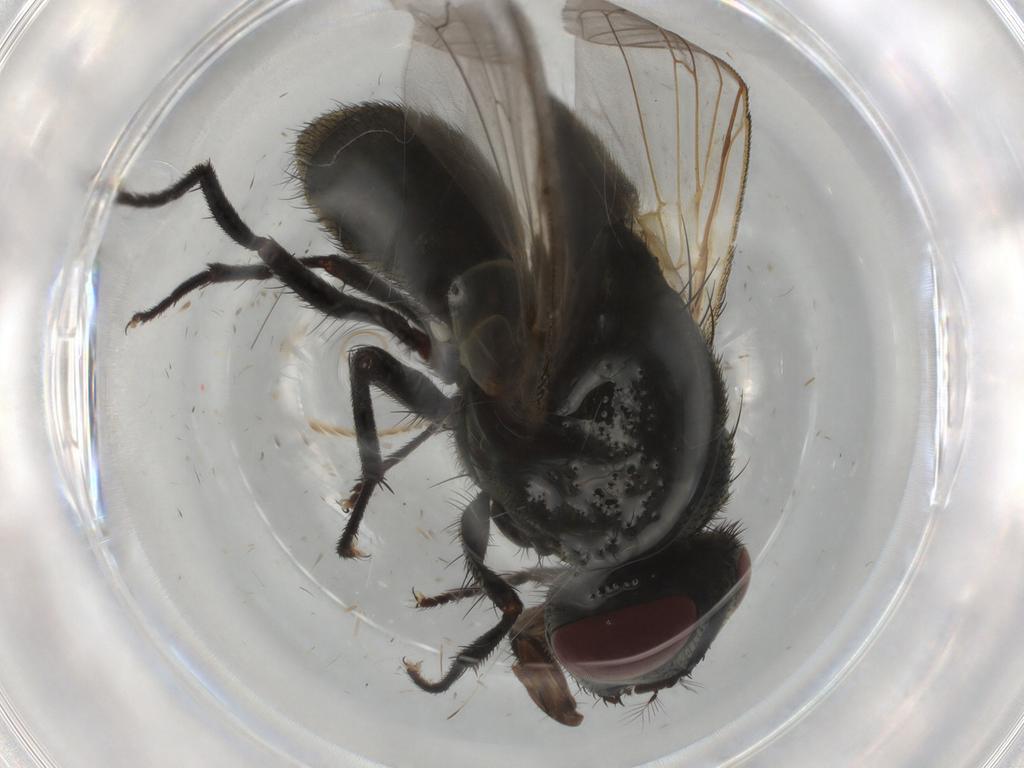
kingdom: Animalia
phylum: Arthropoda
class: Insecta
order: Diptera
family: Muscidae
